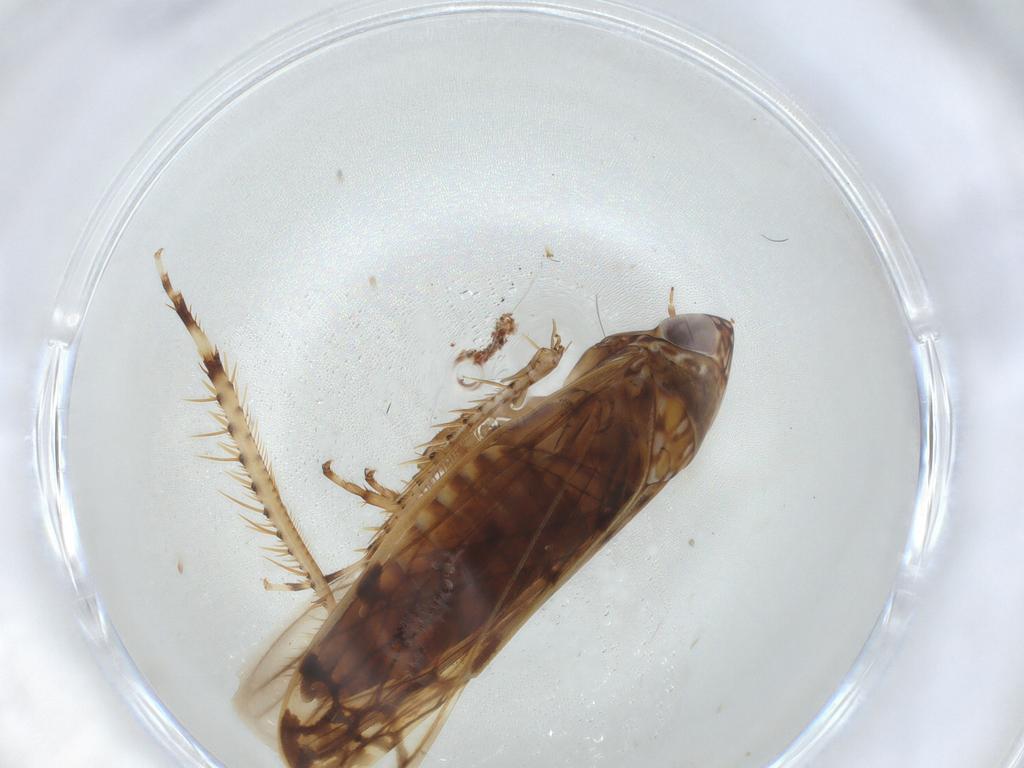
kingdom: Animalia
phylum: Arthropoda
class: Insecta
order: Hemiptera
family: Cicadellidae
